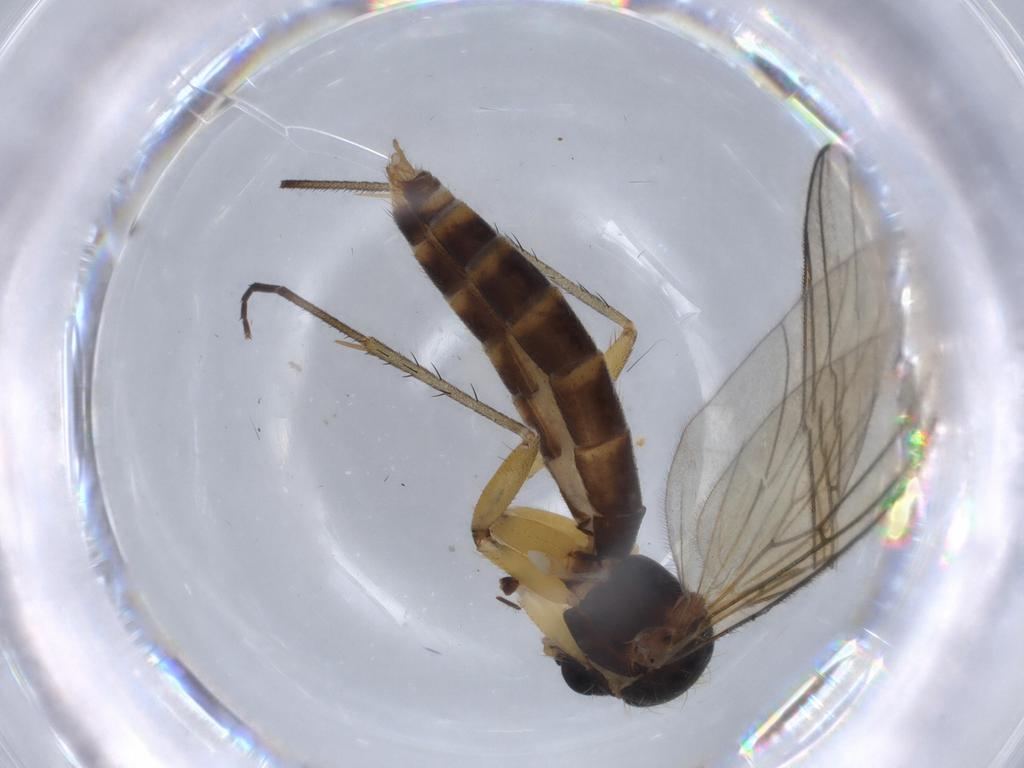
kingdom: Animalia
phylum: Arthropoda
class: Insecta
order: Diptera
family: Mycetophilidae
